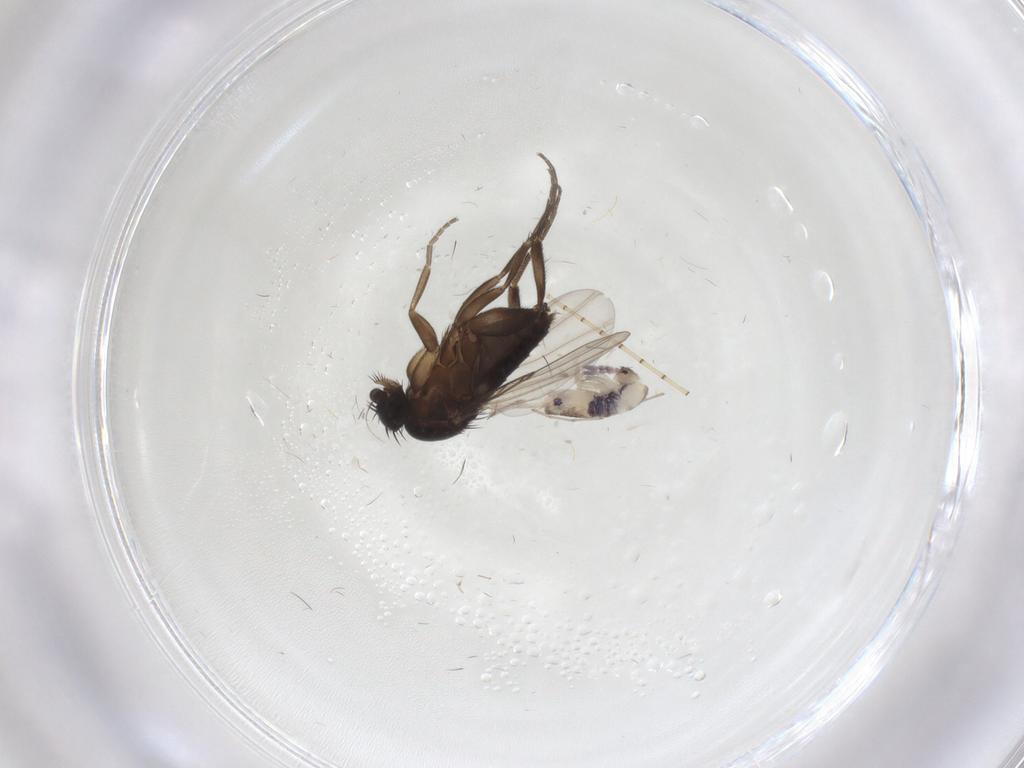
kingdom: Animalia
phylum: Arthropoda
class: Insecta
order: Diptera
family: Phoridae
